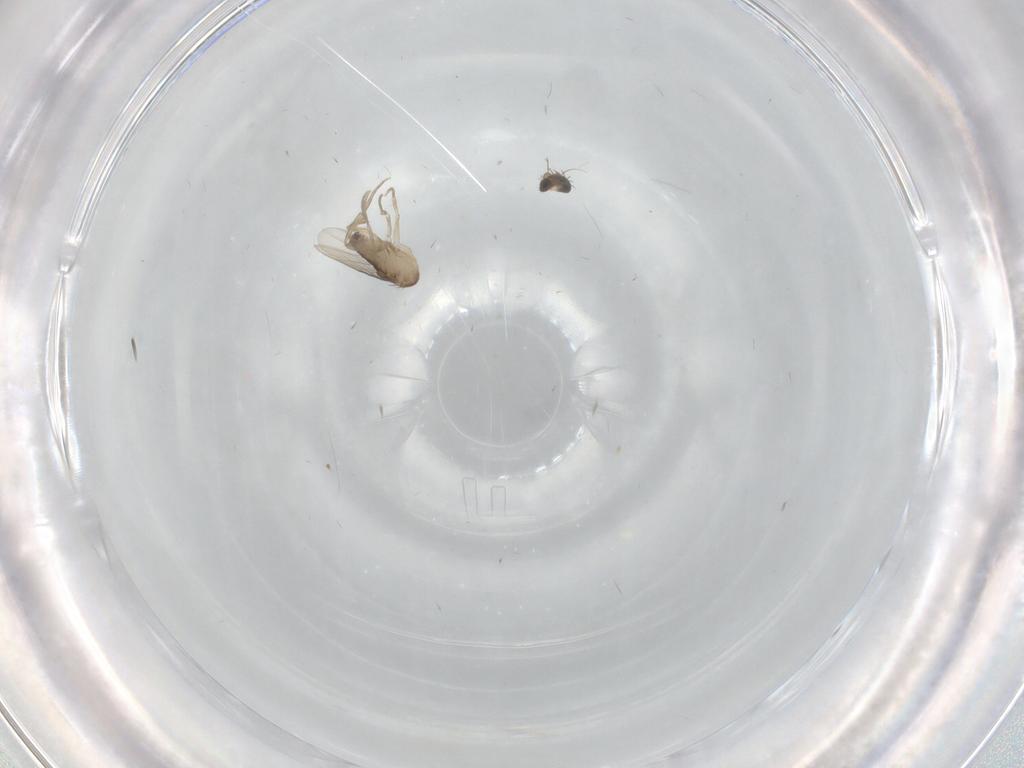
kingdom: Animalia
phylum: Arthropoda
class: Insecta
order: Diptera
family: Phoridae
